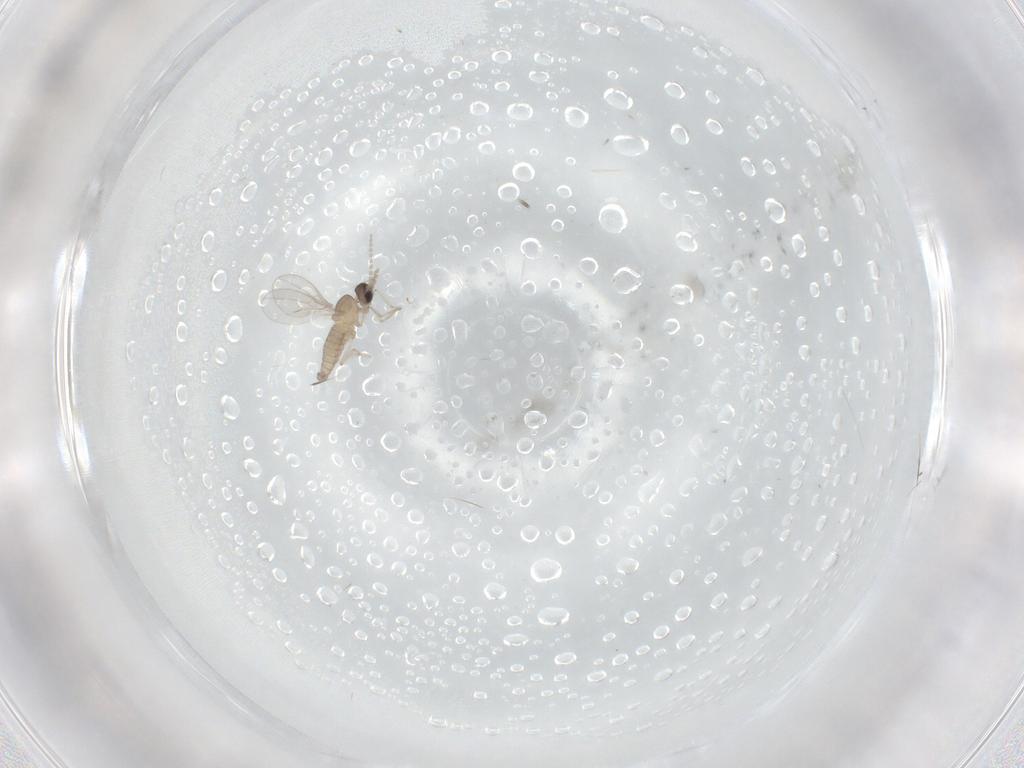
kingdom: Animalia
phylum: Arthropoda
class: Insecta
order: Diptera
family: Cecidomyiidae
